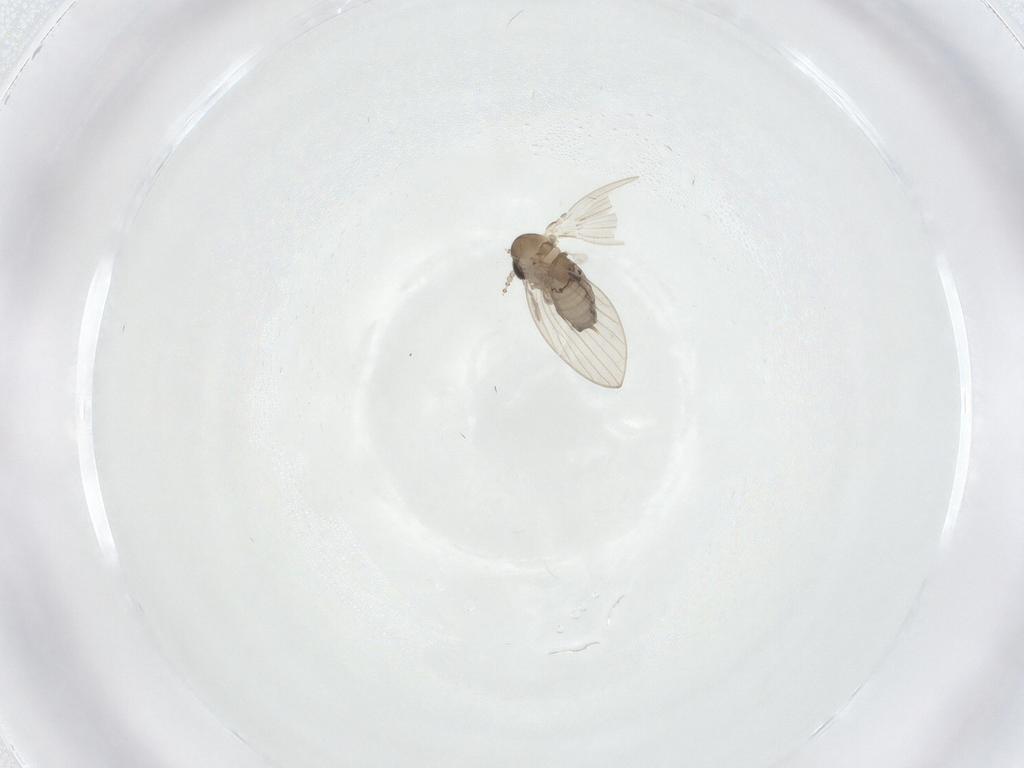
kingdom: Animalia
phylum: Arthropoda
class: Insecta
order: Diptera
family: Psychodidae
